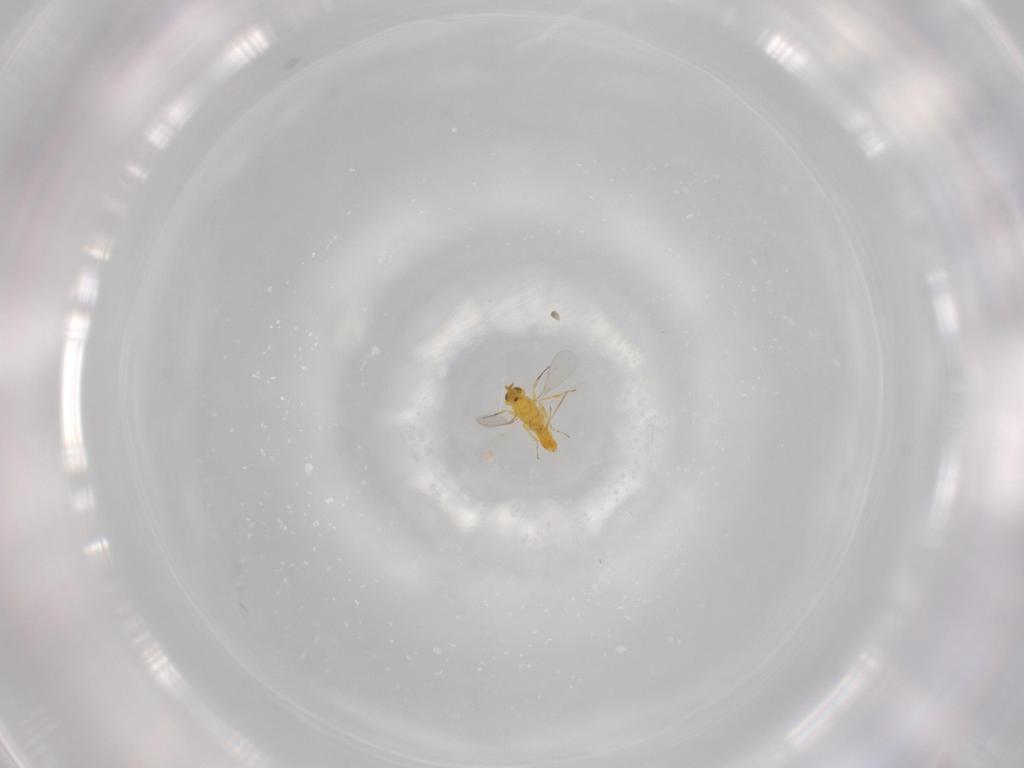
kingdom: Animalia
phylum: Arthropoda
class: Insecta
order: Hymenoptera
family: Aphelinidae
